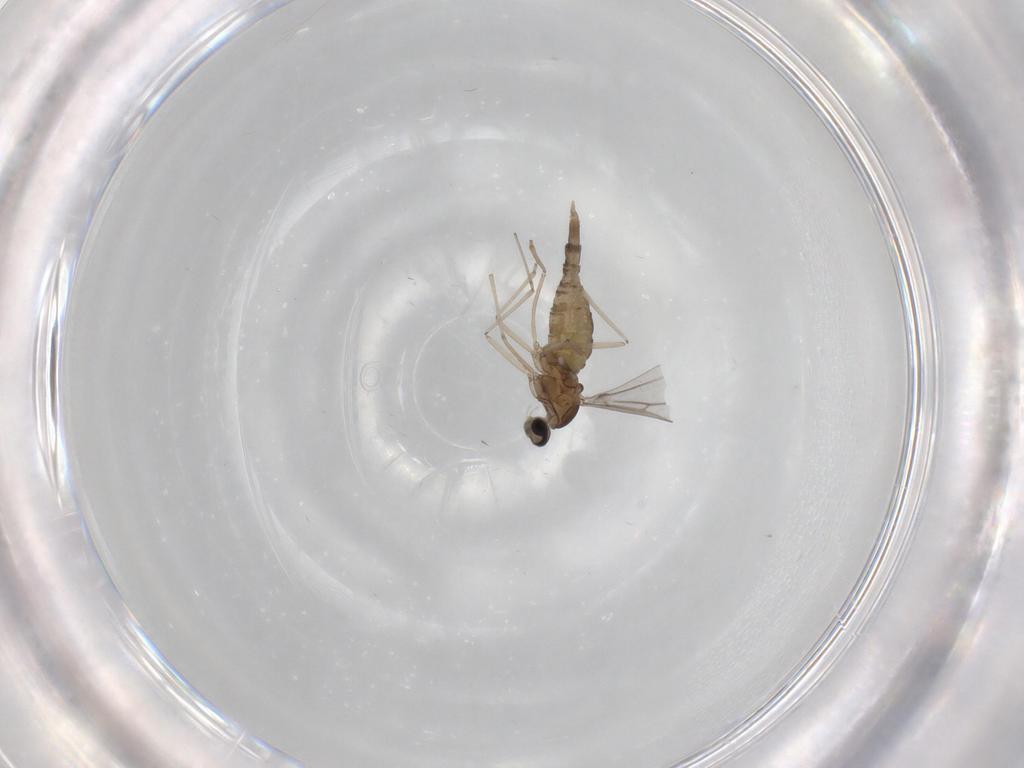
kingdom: Animalia
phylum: Arthropoda
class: Insecta
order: Diptera
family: Cecidomyiidae
